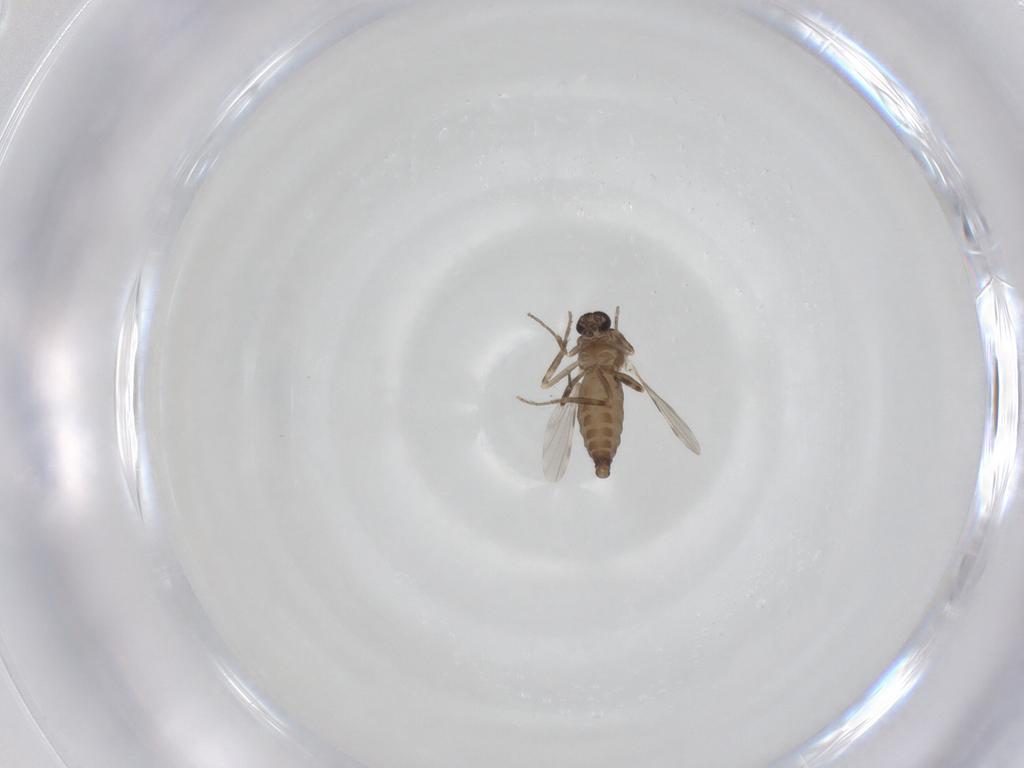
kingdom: Animalia
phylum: Arthropoda
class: Insecta
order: Diptera
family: Ceratopogonidae
